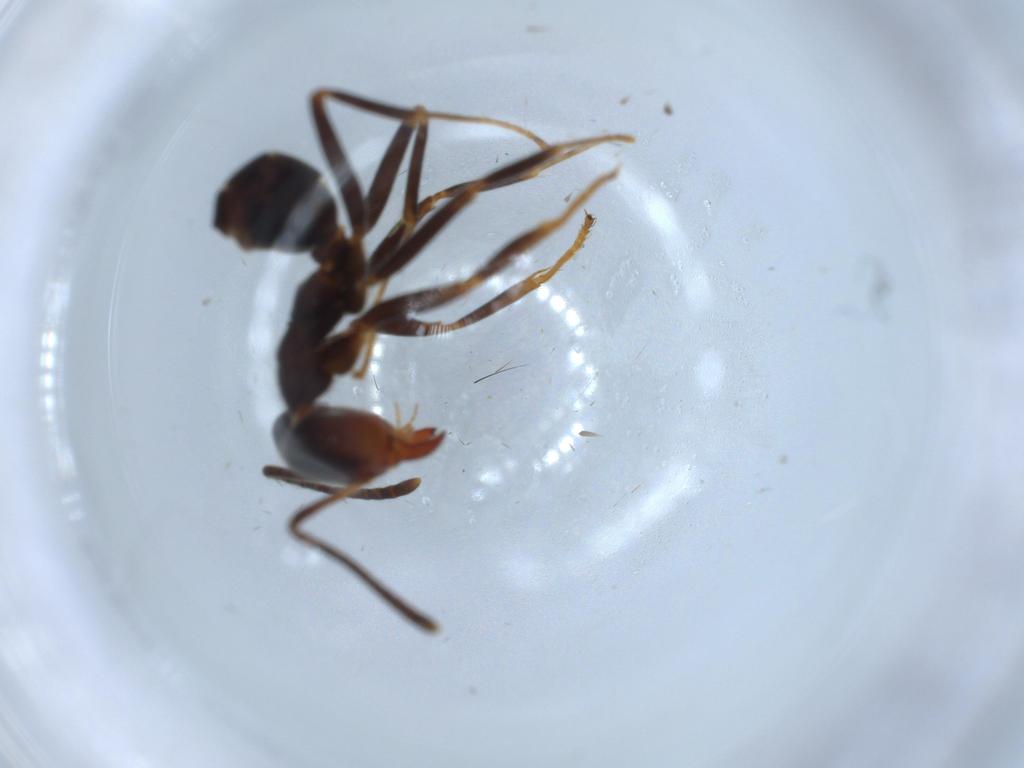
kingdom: Animalia
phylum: Arthropoda
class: Insecta
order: Hymenoptera
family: Formicidae
